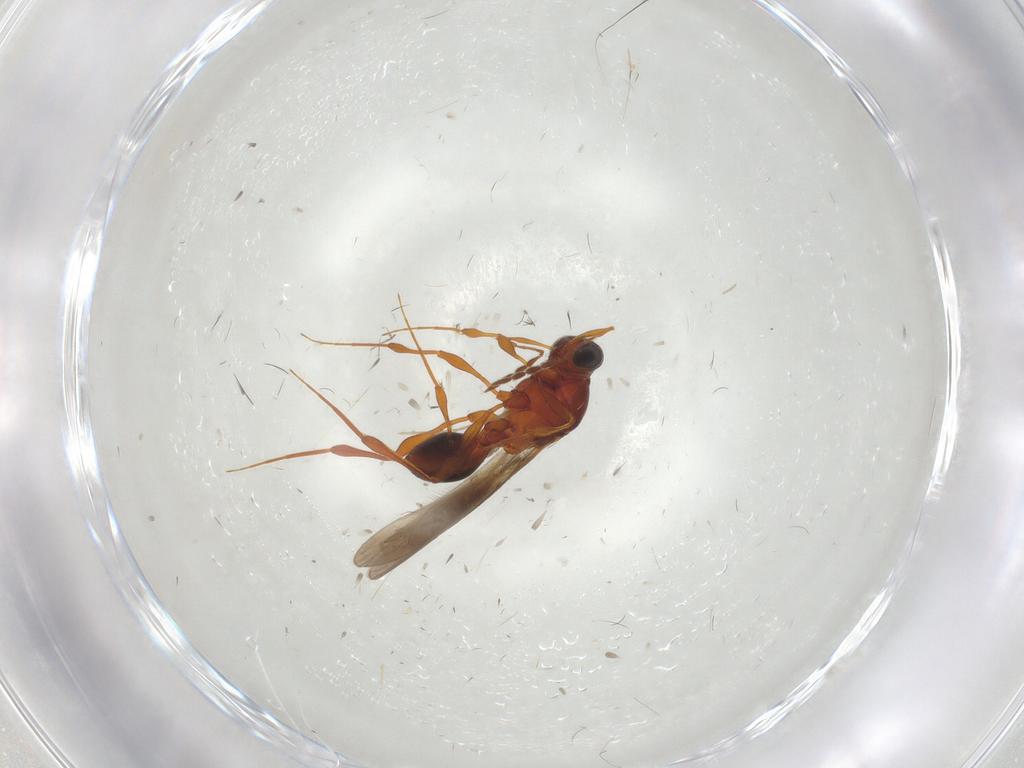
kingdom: Animalia
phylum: Arthropoda
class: Insecta
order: Hymenoptera
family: Platygastridae
